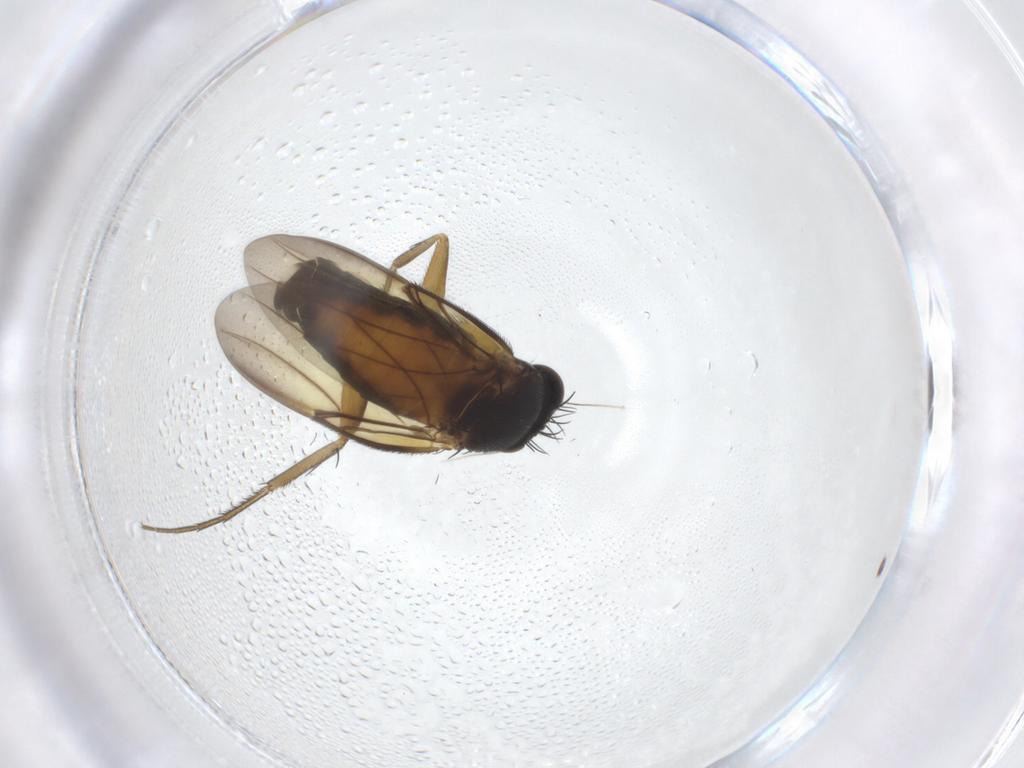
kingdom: Animalia
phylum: Arthropoda
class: Insecta
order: Diptera
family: Phoridae
